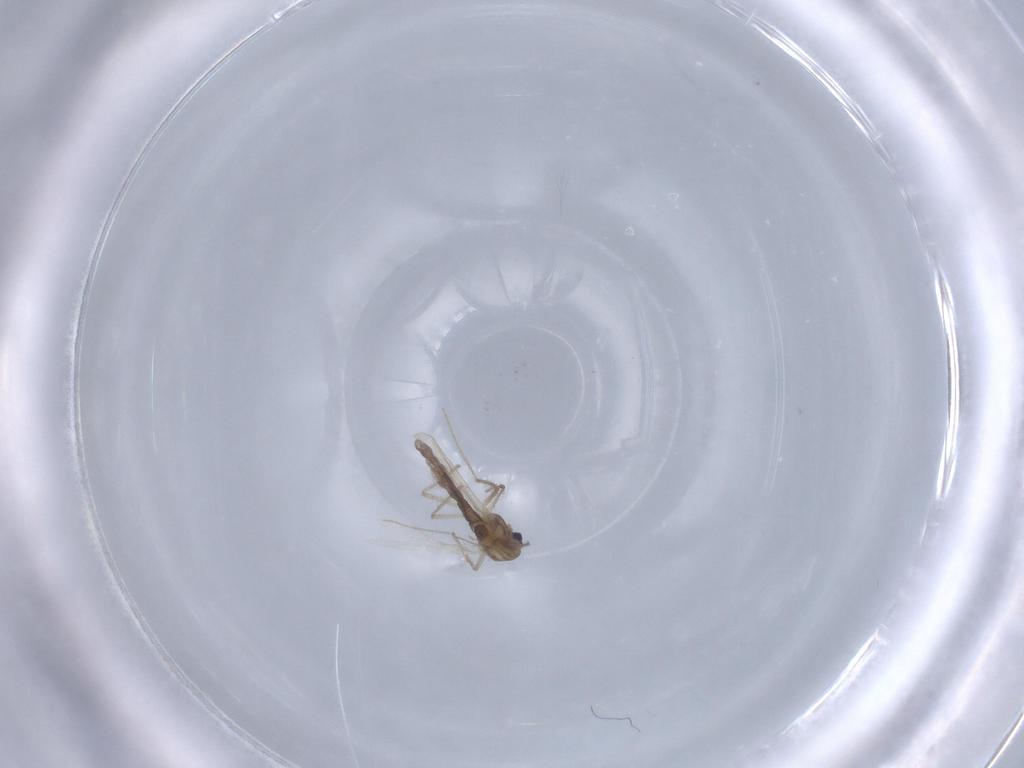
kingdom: Animalia
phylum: Arthropoda
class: Insecta
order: Diptera
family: Chironomidae
